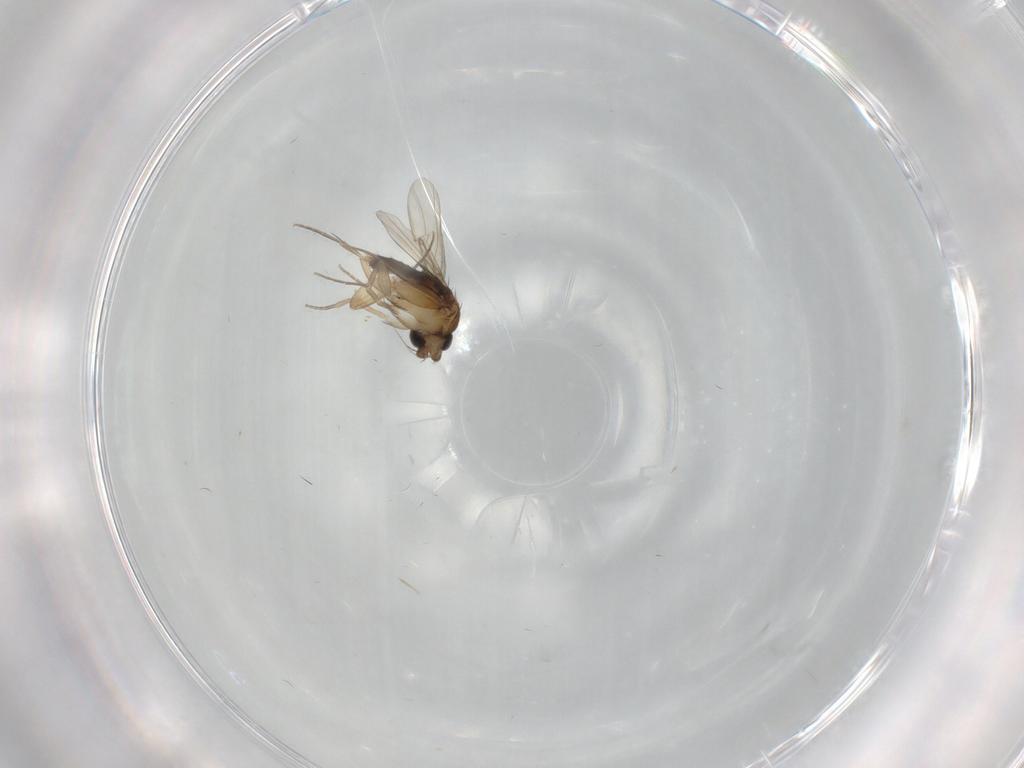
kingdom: Animalia
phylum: Arthropoda
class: Insecta
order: Diptera
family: Phoridae
